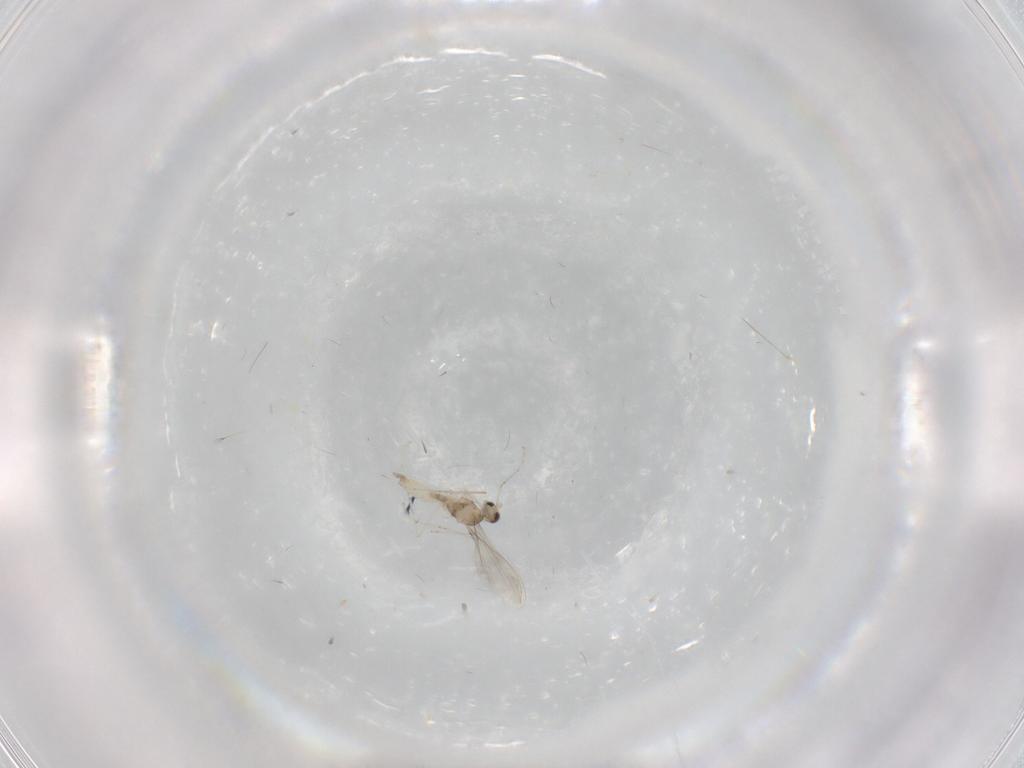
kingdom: Animalia
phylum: Arthropoda
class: Insecta
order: Diptera
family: Cecidomyiidae
